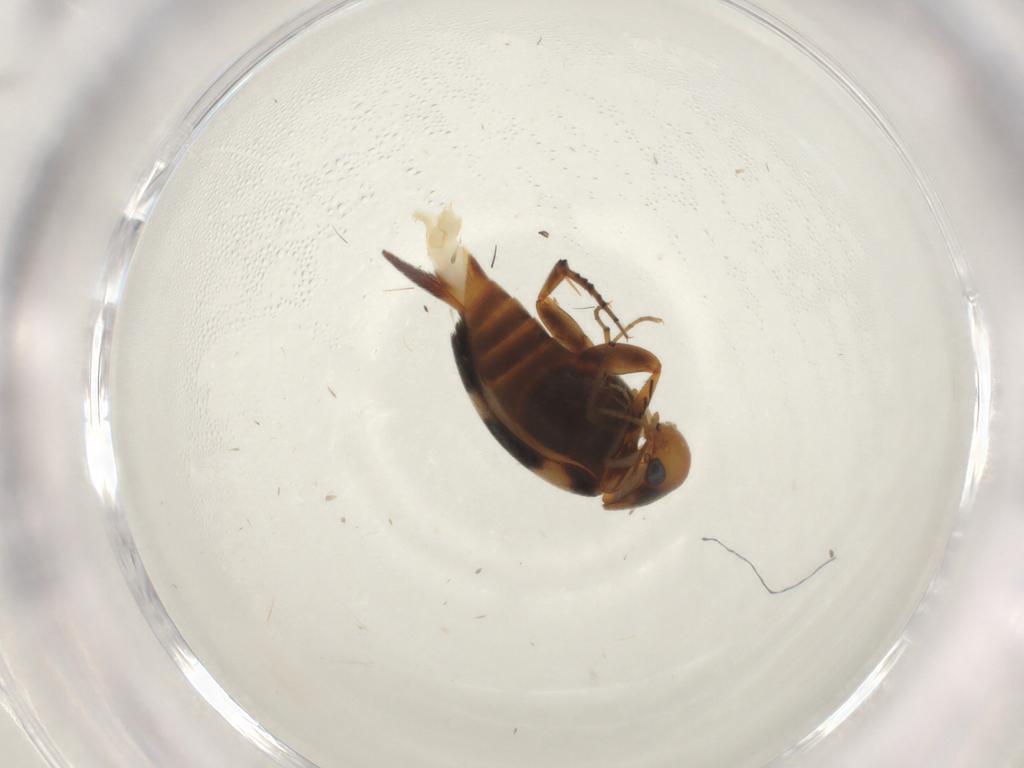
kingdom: Animalia
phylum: Arthropoda
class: Insecta
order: Coleoptera
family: Mordellidae
